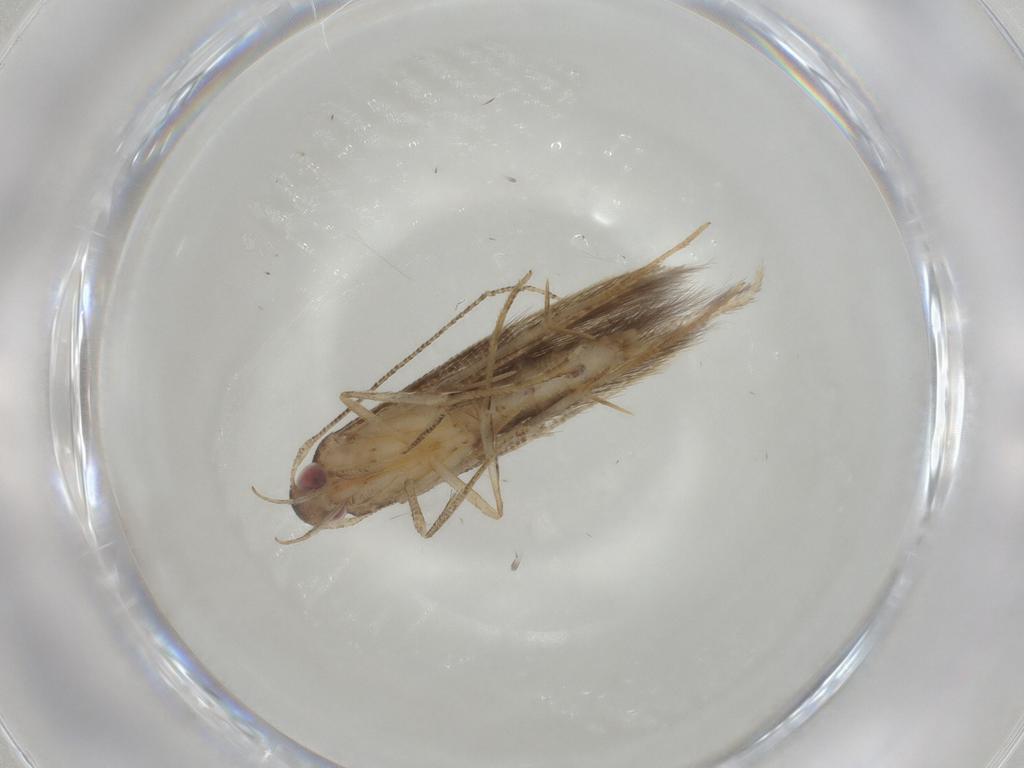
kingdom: Animalia
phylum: Arthropoda
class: Insecta
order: Lepidoptera
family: Cosmopterigidae
